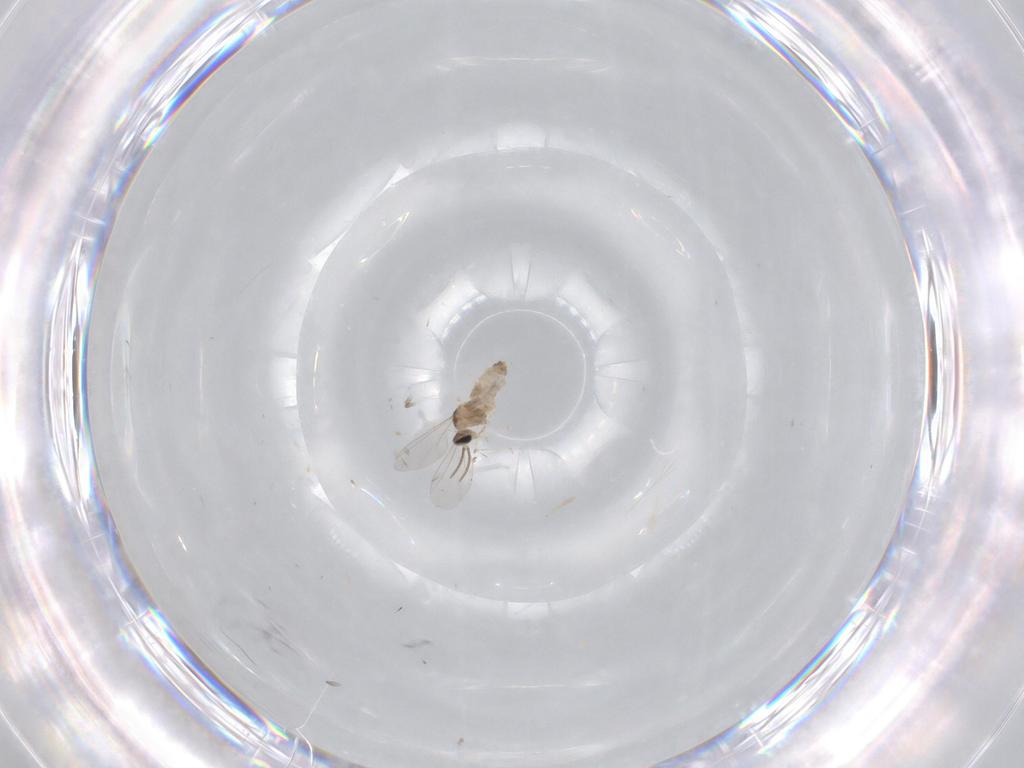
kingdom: Animalia
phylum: Arthropoda
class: Insecta
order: Diptera
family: Cecidomyiidae
